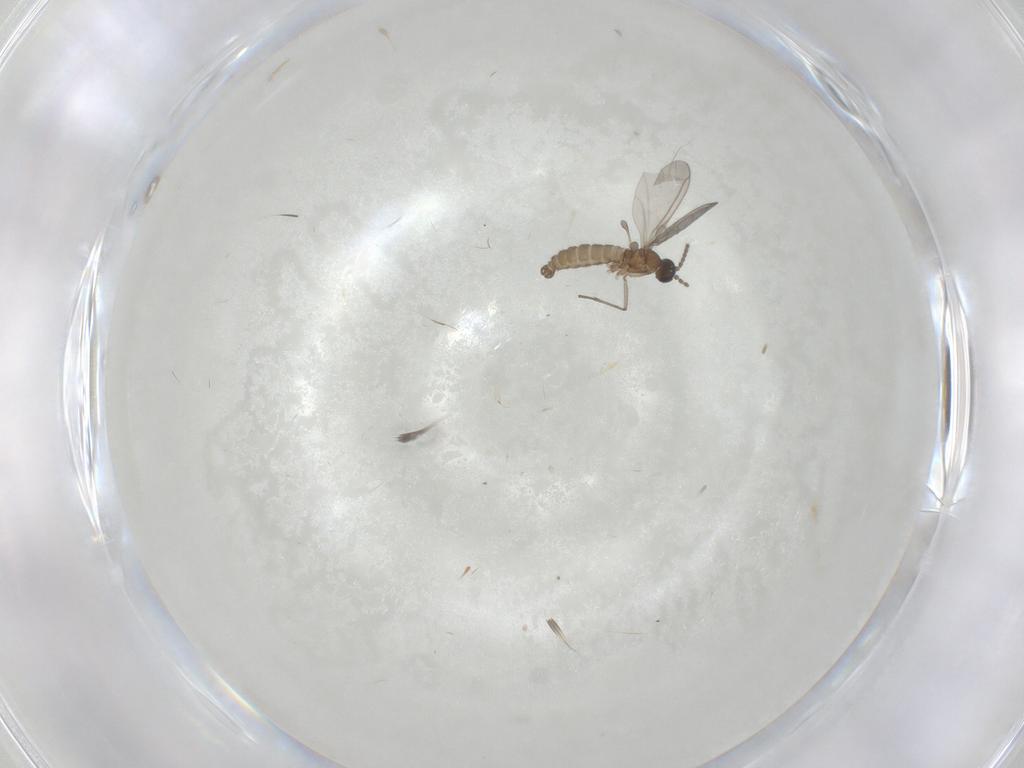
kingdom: Animalia
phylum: Arthropoda
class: Insecta
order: Diptera
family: Sciaridae
